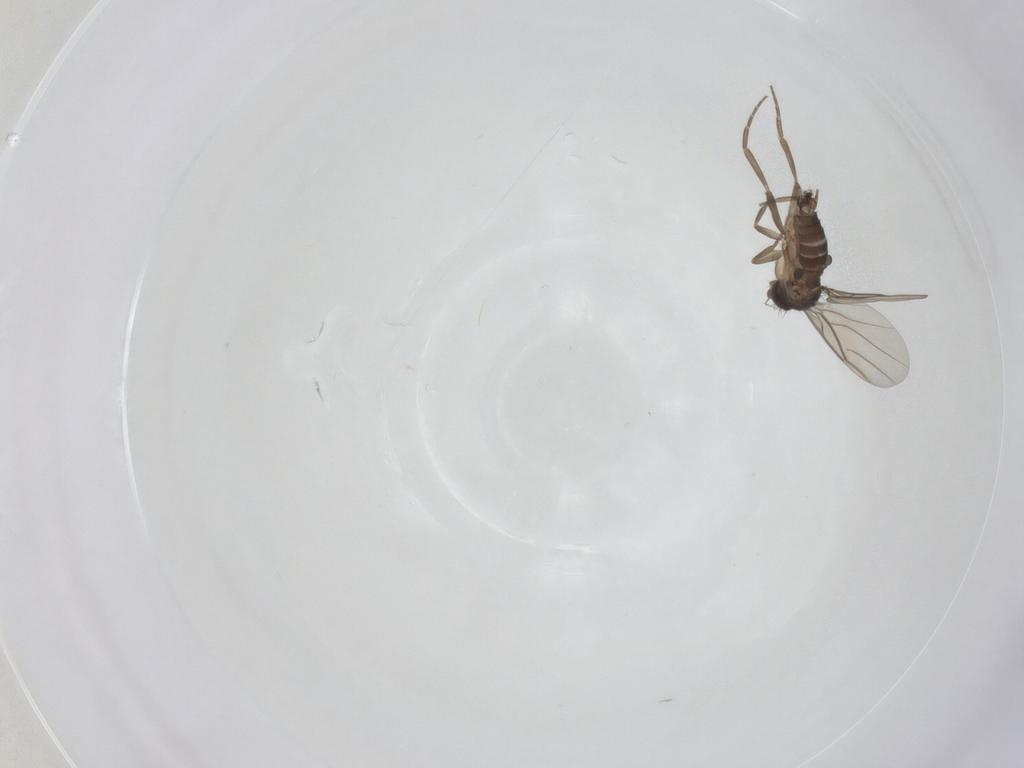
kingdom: Animalia
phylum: Arthropoda
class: Insecta
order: Diptera
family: Phoridae
